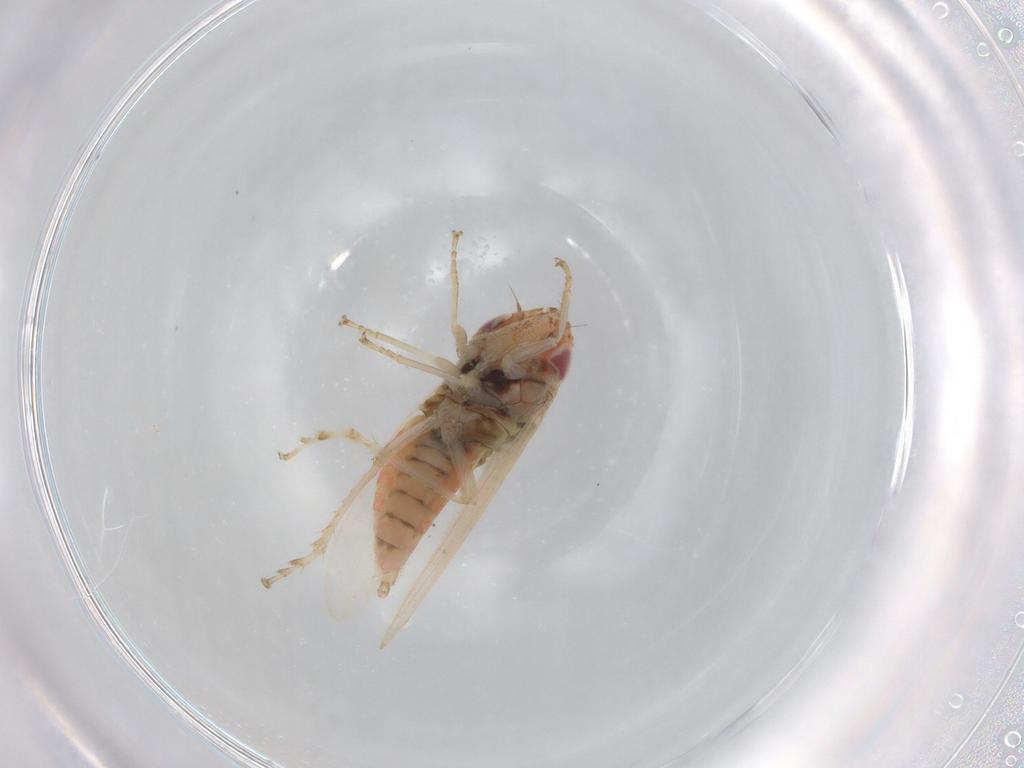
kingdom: Animalia
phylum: Arthropoda
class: Insecta
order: Hemiptera
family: Cicadellidae
